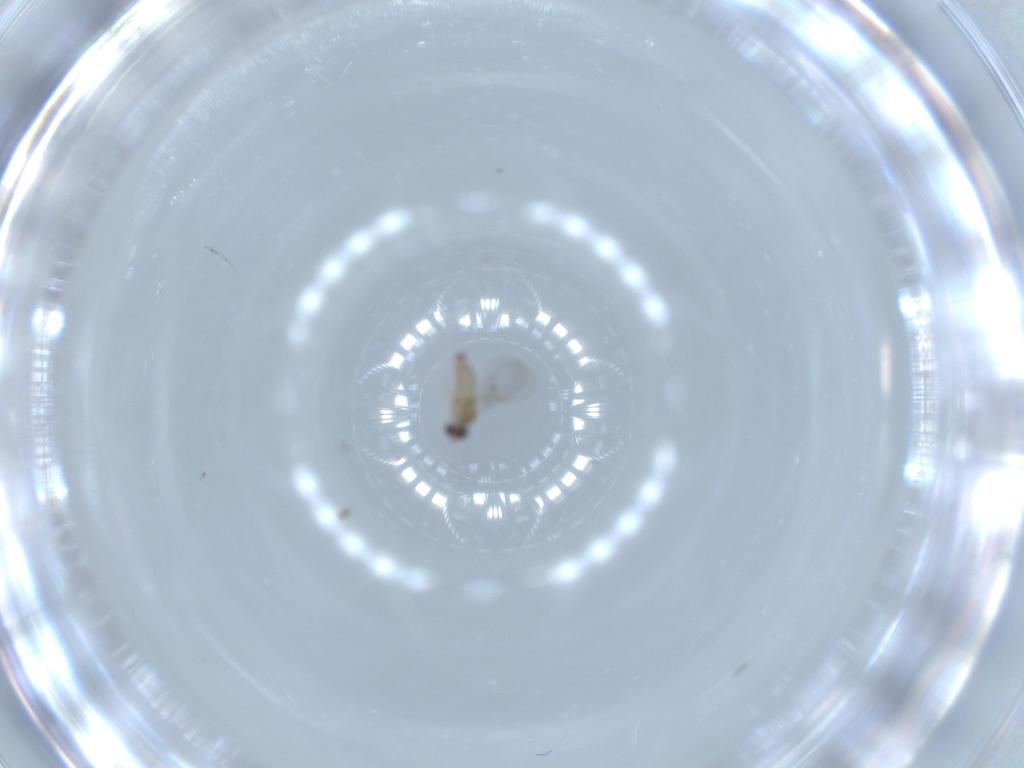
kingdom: Animalia
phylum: Arthropoda
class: Insecta
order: Diptera
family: Cecidomyiidae
